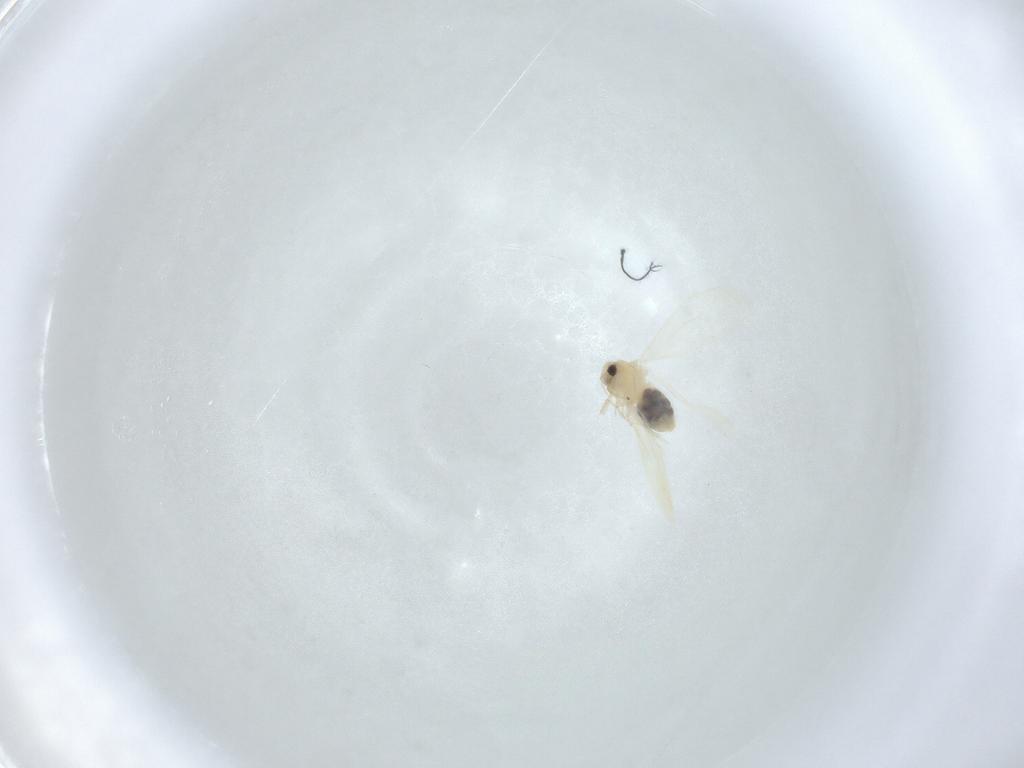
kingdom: Animalia
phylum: Arthropoda
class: Insecta
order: Hemiptera
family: Aleyrodidae
